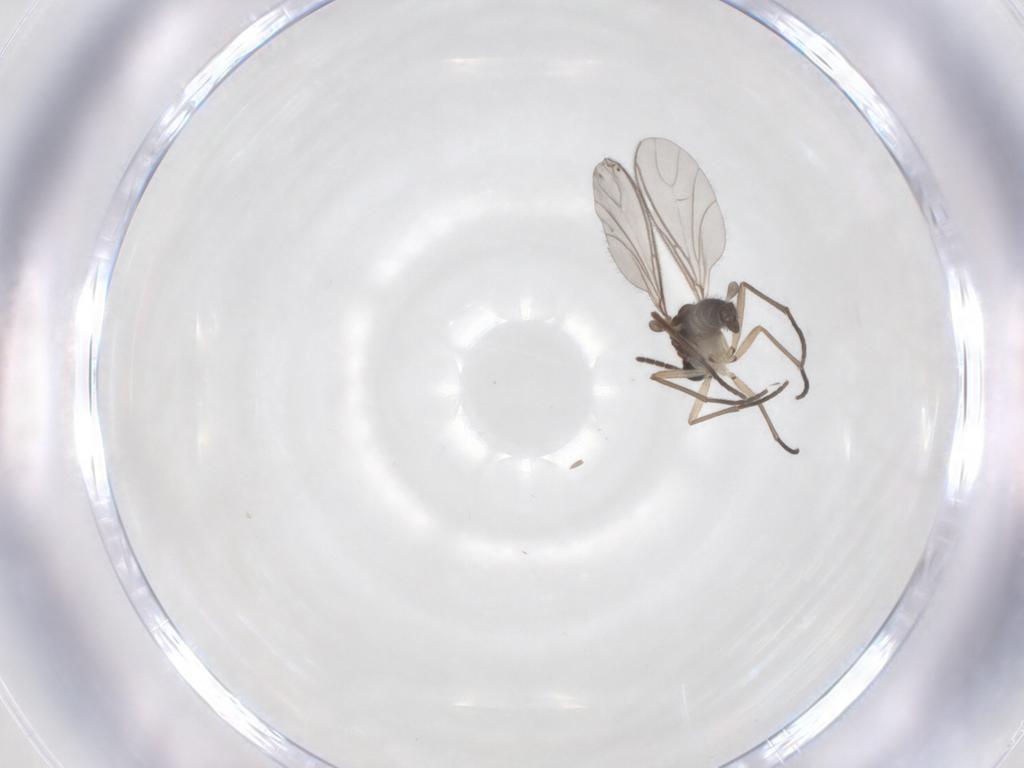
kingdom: Animalia
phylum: Arthropoda
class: Insecta
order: Diptera
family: Sciaridae
